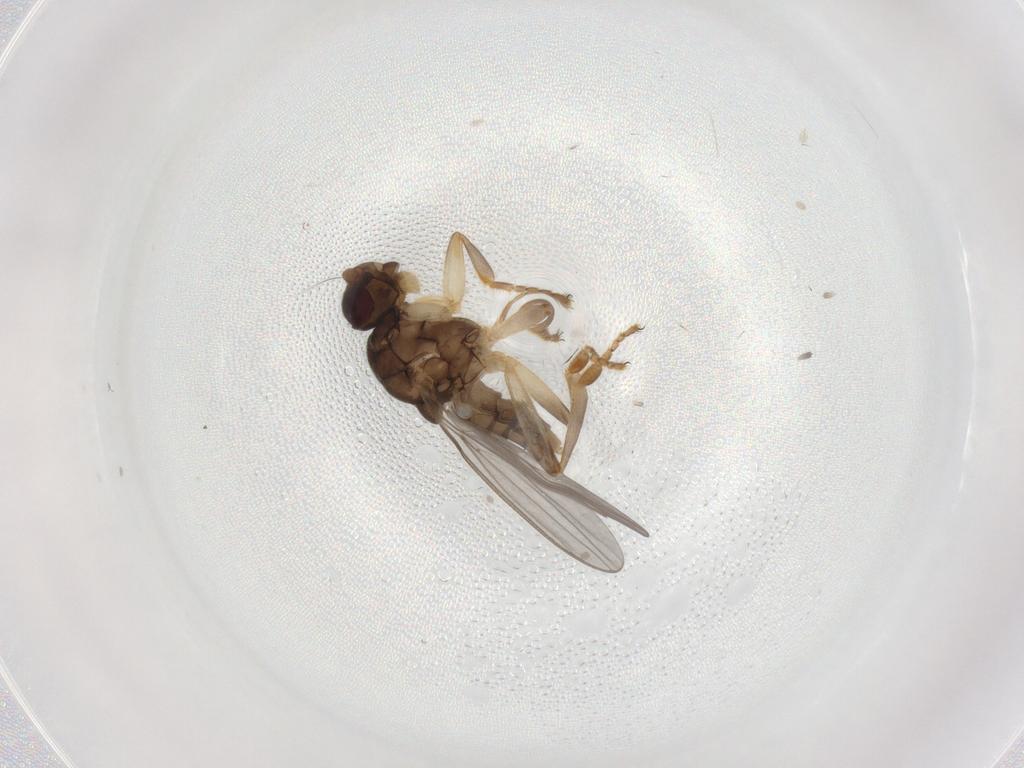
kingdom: Animalia
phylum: Arthropoda
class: Insecta
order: Diptera
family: Sphaeroceridae
